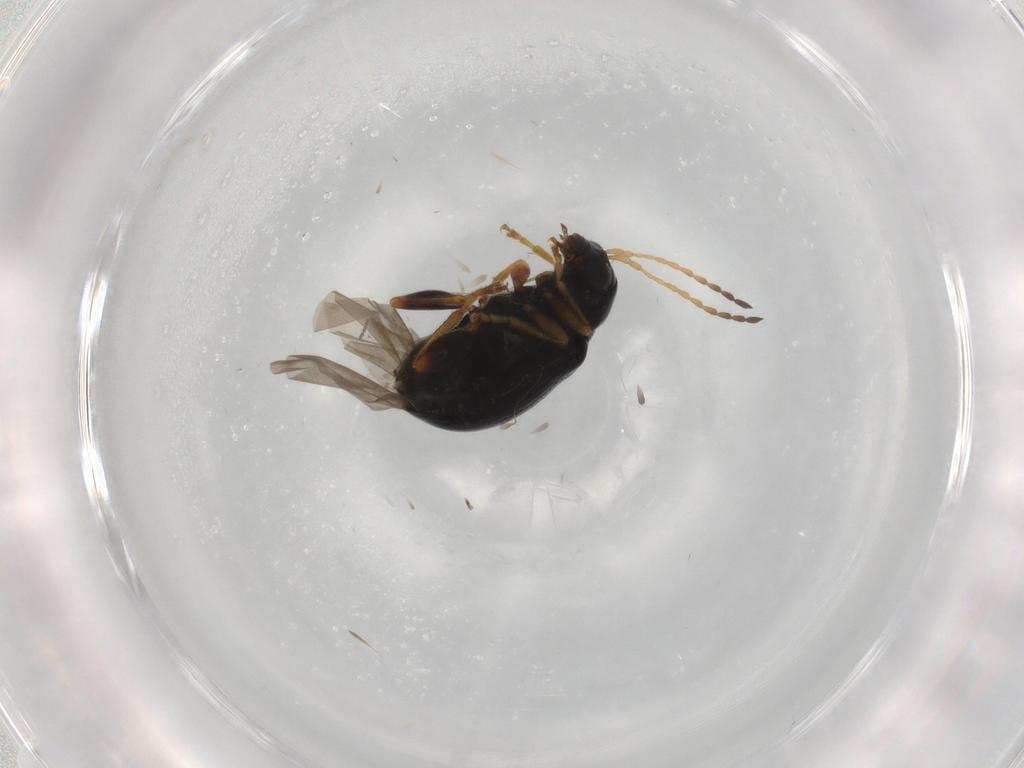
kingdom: Animalia
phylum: Arthropoda
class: Insecta
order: Coleoptera
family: Chrysomelidae
